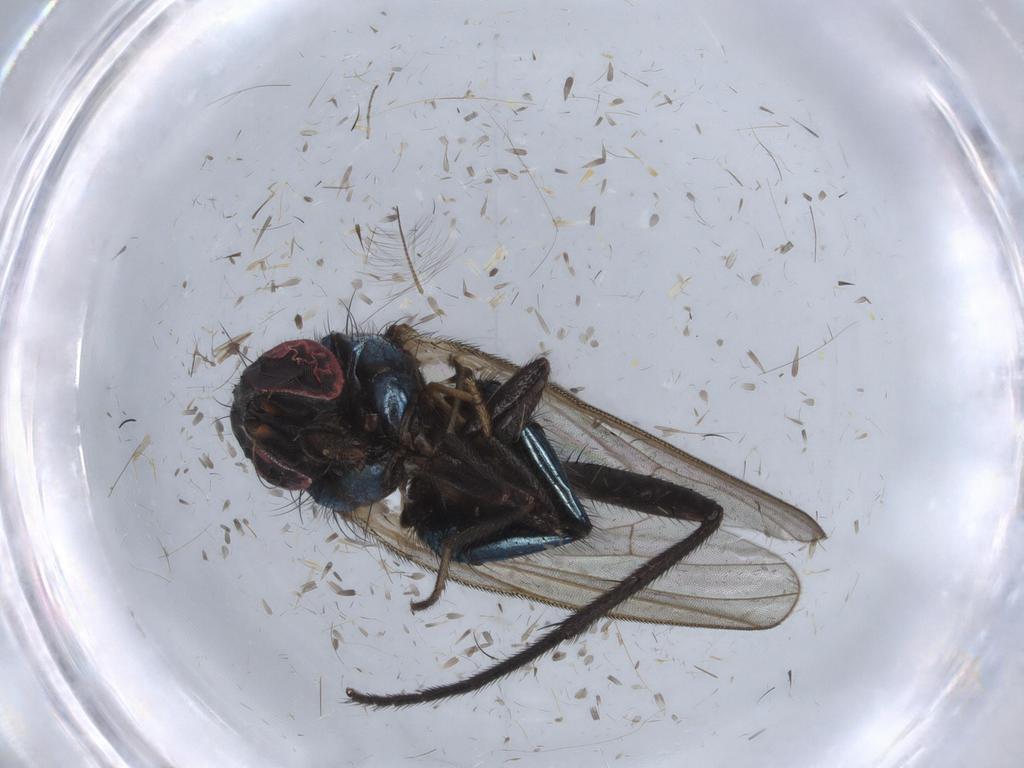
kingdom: Animalia
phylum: Arthropoda
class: Insecta
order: Diptera
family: Lonchaeidae
